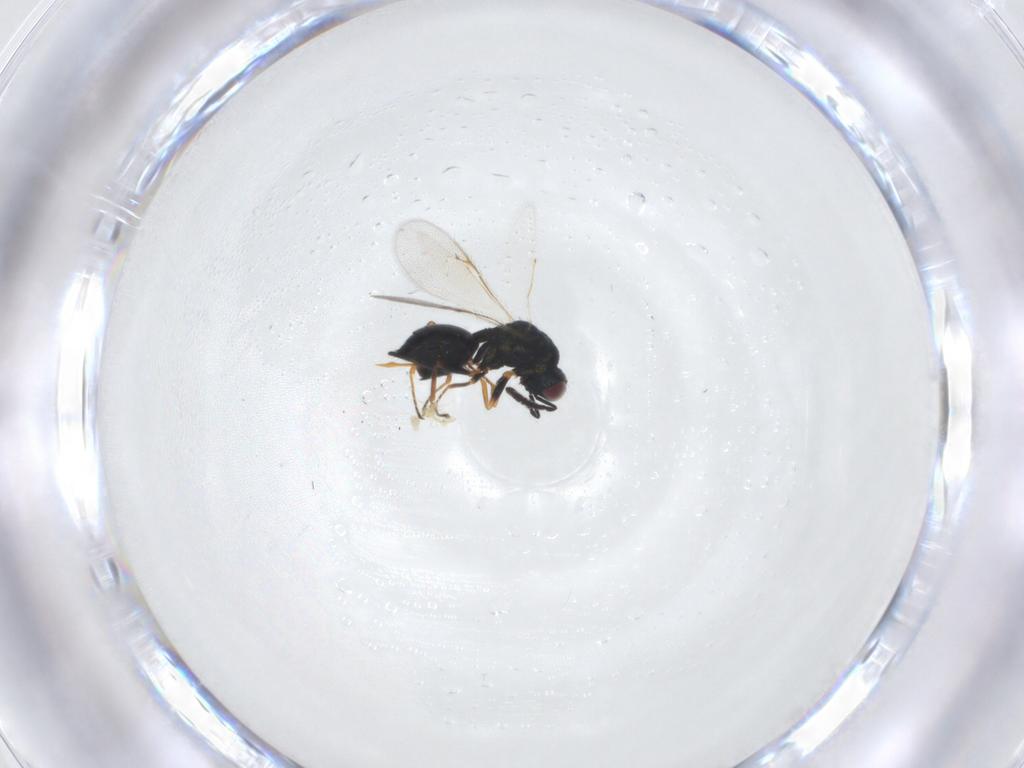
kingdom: Animalia
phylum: Arthropoda
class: Insecta
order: Hymenoptera
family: Chalcidoidea_incertae_sedis
